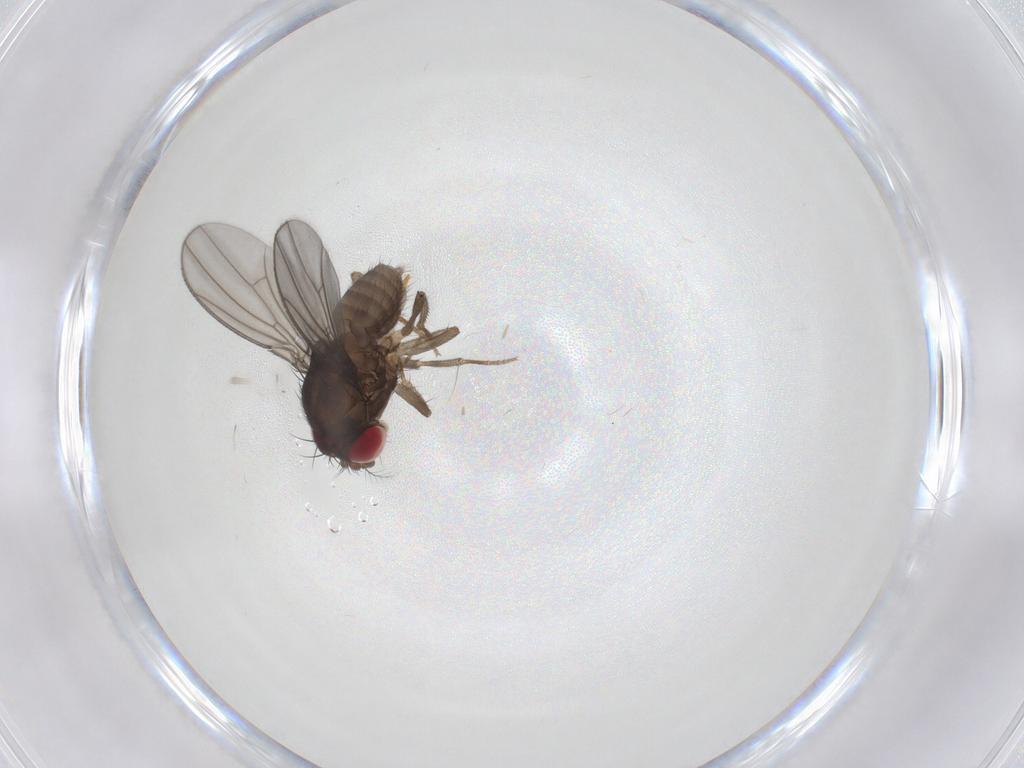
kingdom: Animalia
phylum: Arthropoda
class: Insecta
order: Diptera
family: Drosophilidae
